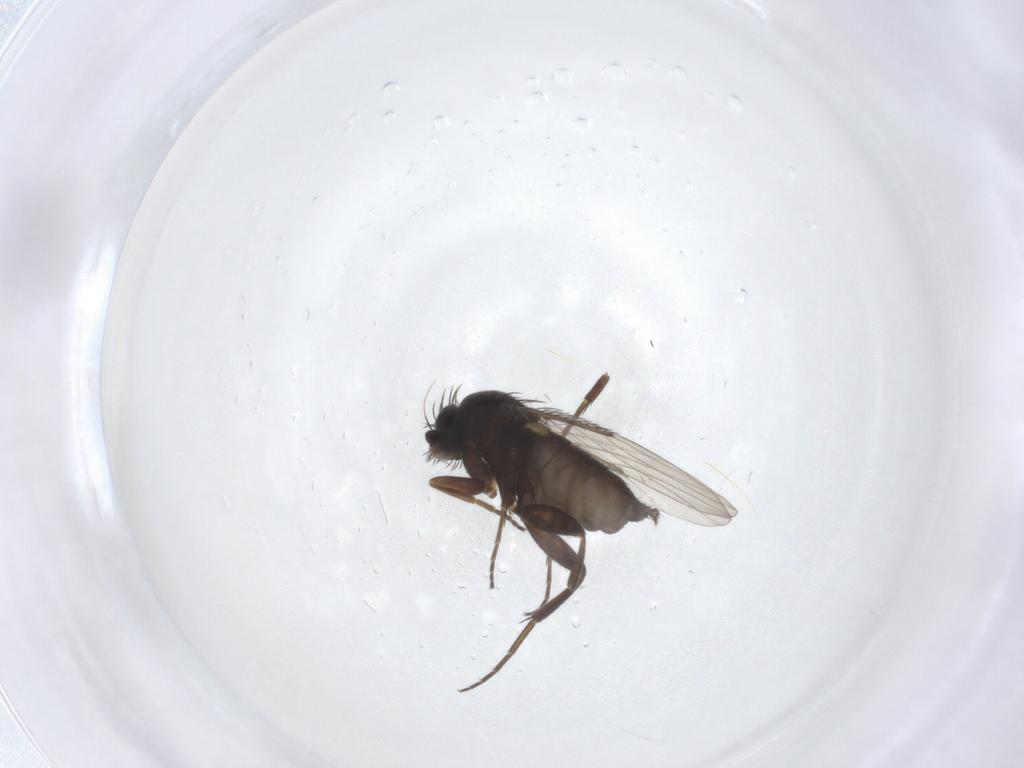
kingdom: Animalia
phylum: Arthropoda
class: Insecta
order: Diptera
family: Phoridae
